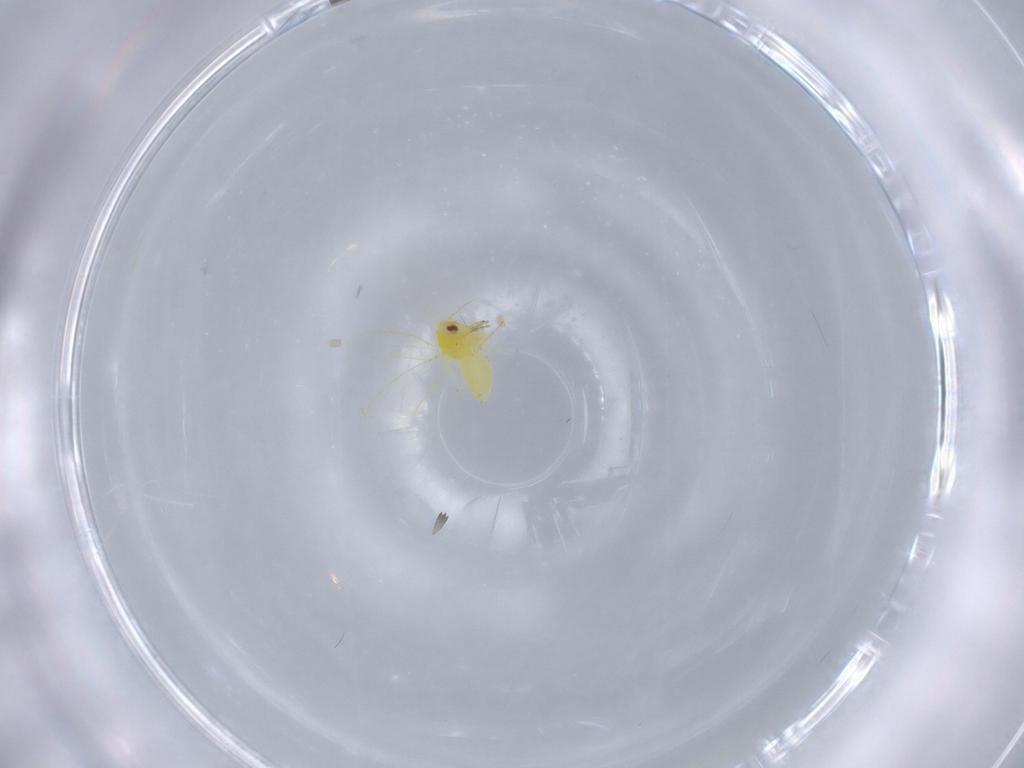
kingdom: Animalia
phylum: Arthropoda
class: Insecta
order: Hemiptera
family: Aleyrodidae
